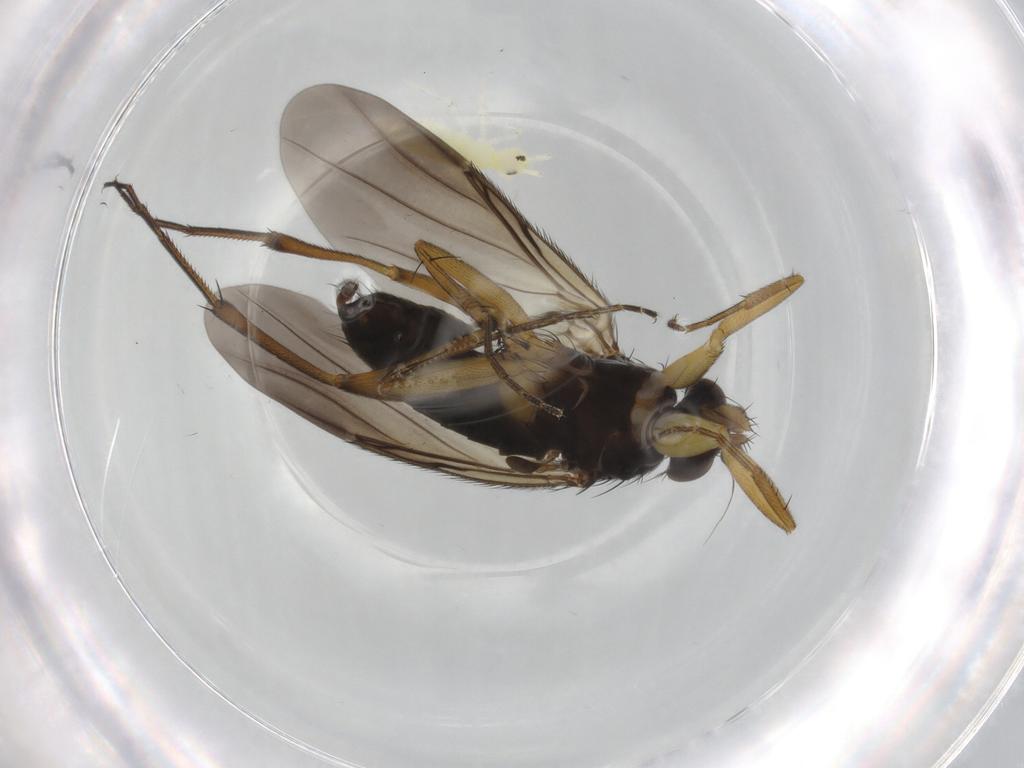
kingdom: Animalia
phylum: Arthropoda
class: Insecta
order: Diptera
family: Phoridae
